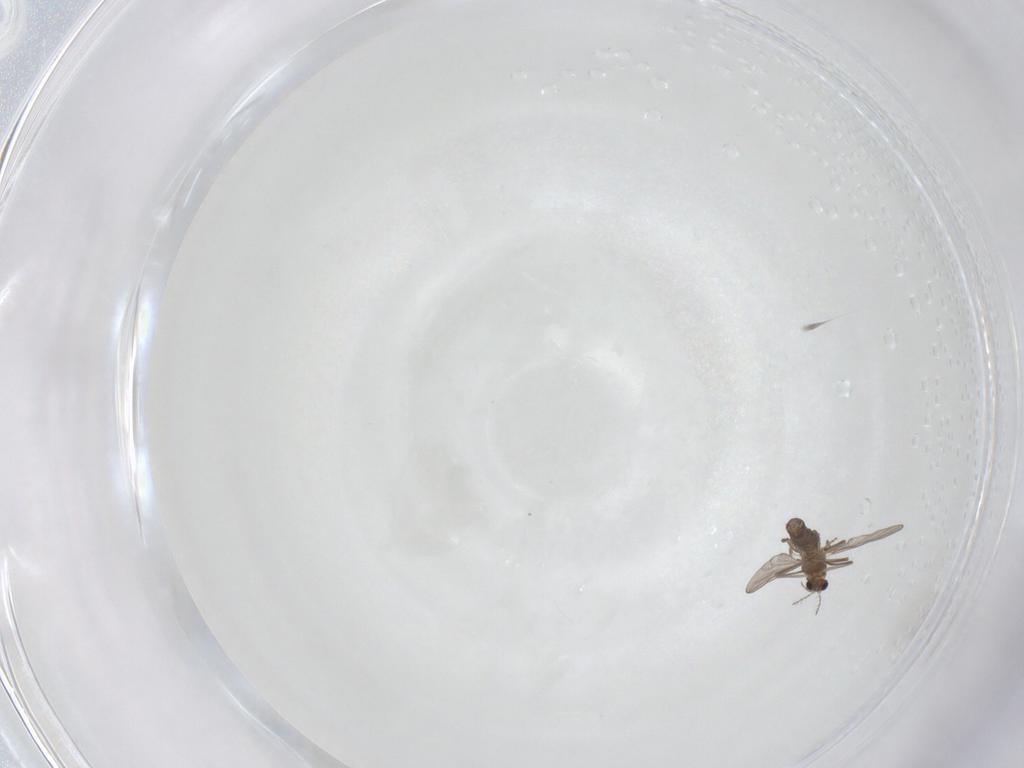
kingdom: Animalia
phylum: Arthropoda
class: Insecta
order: Diptera
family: Chironomidae
